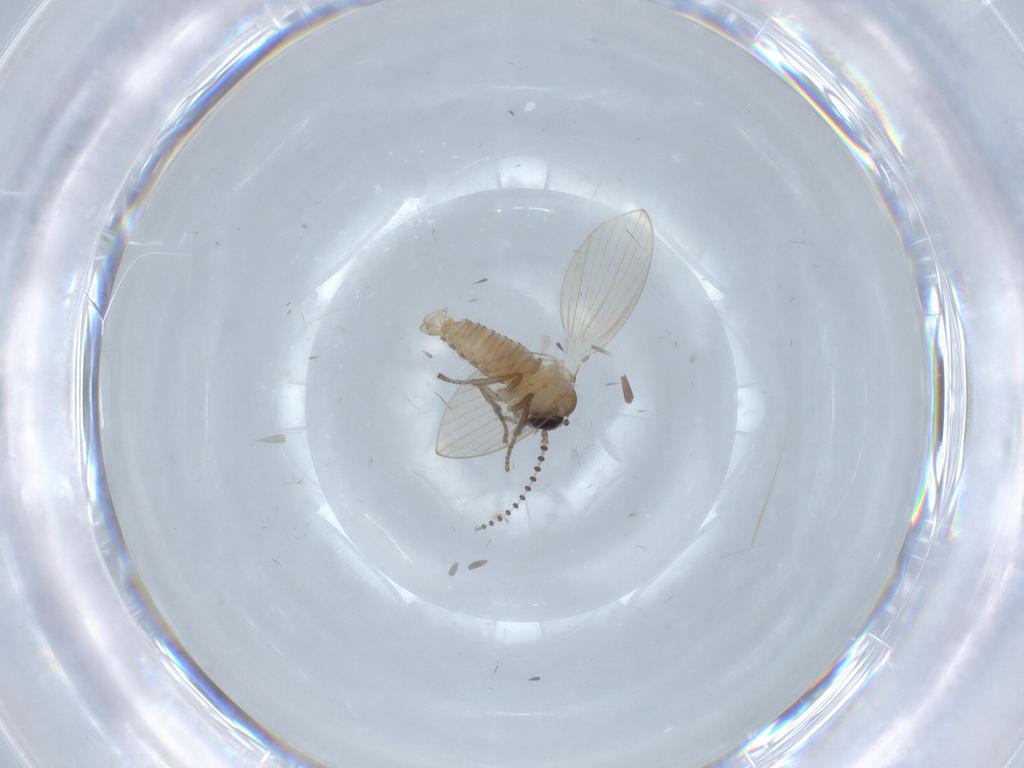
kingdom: Animalia
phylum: Arthropoda
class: Insecta
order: Diptera
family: Psychodidae
